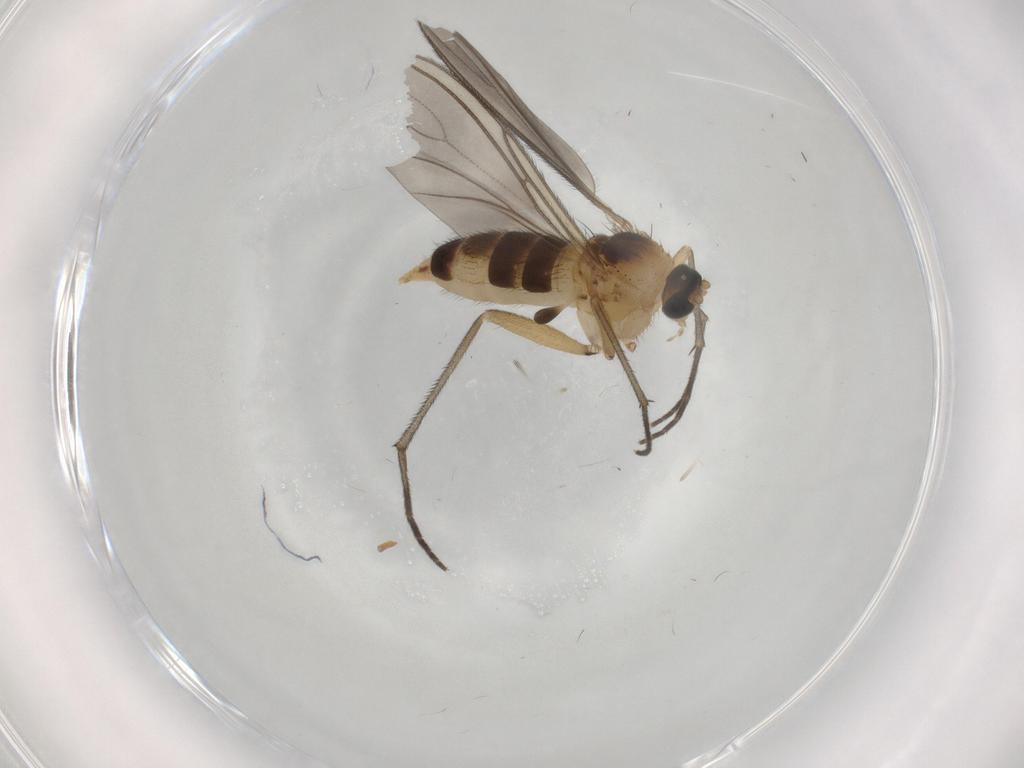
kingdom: Animalia
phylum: Arthropoda
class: Insecta
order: Diptera
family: Sciaridae
